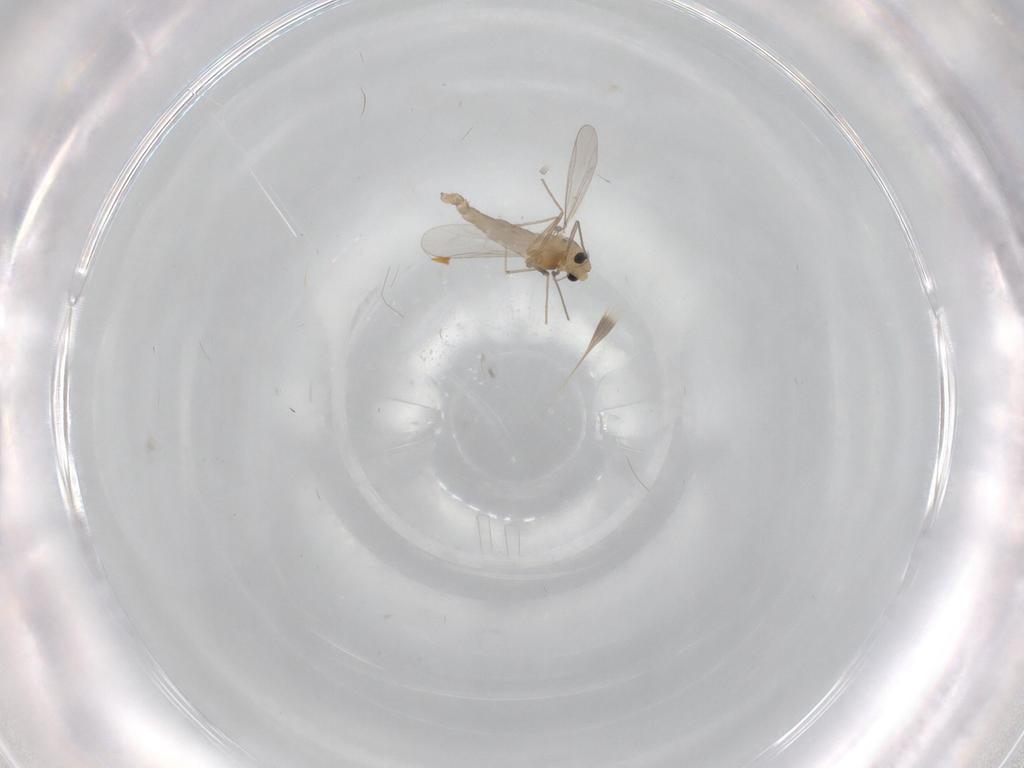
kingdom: Animalia
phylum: Arthropoda
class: Insecta
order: Diptera
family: Chironomidae
